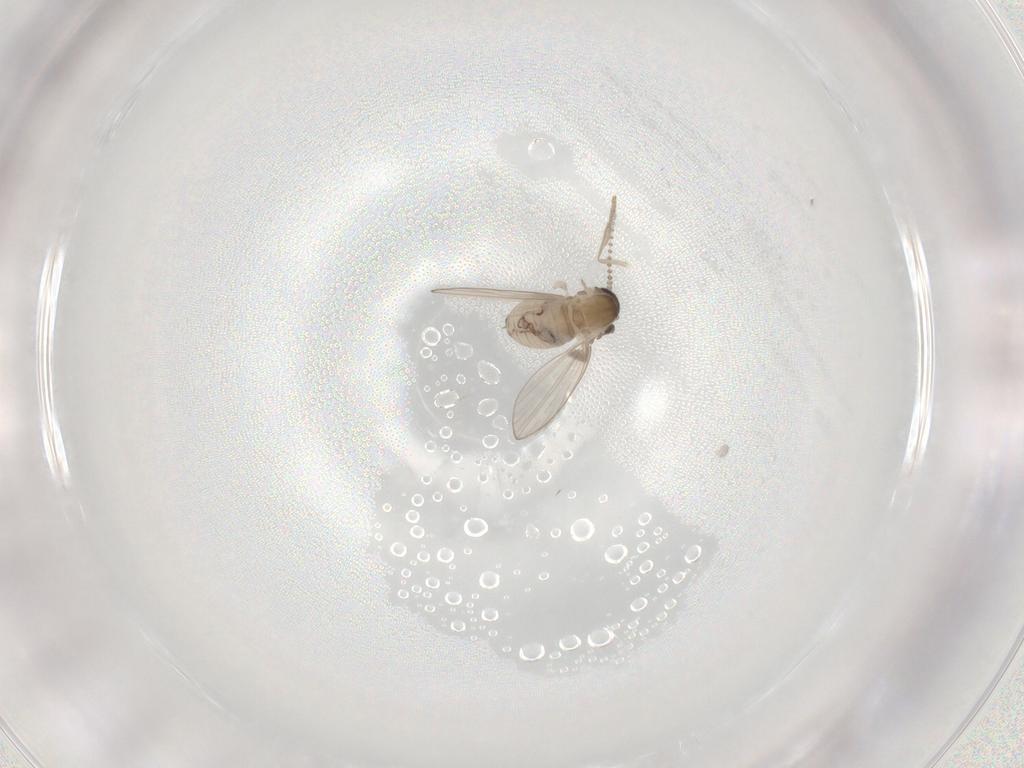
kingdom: Animalia
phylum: Arthropoda
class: Insecta
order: Diptera
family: Psychodidae
